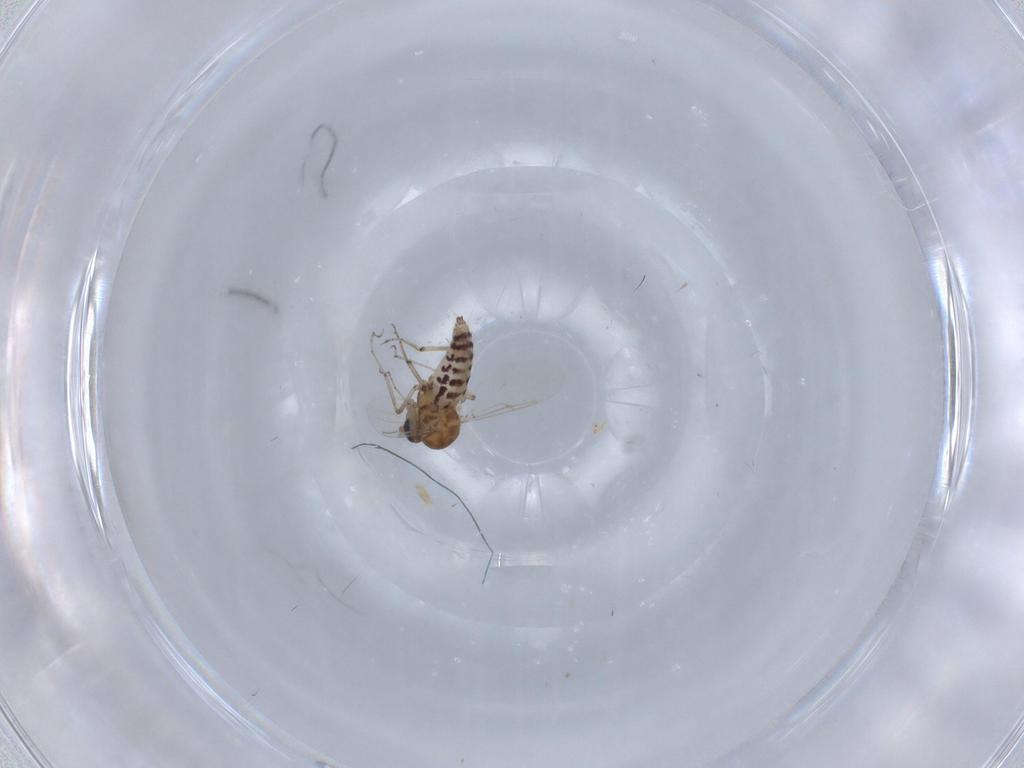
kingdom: Animalia
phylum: Arthropoda
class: Insecta
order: Diptera
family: Ceratopogonidae
